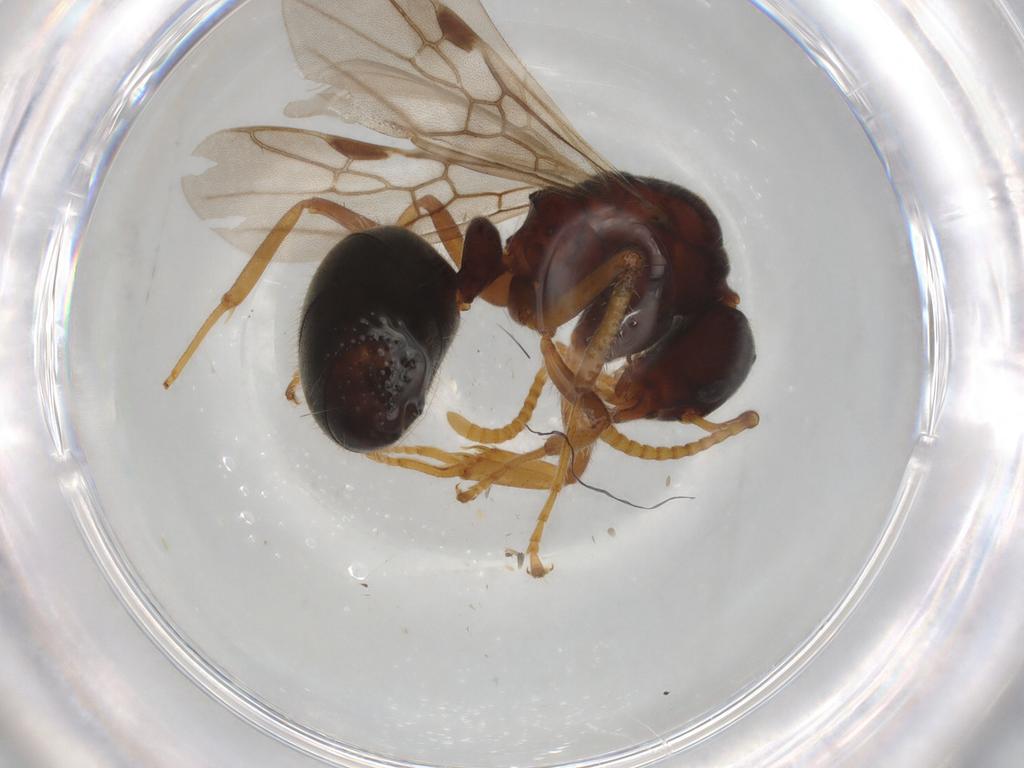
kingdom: Animalia
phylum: Arthropoda
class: Insecta
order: Hymenoptera
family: Formicidae
